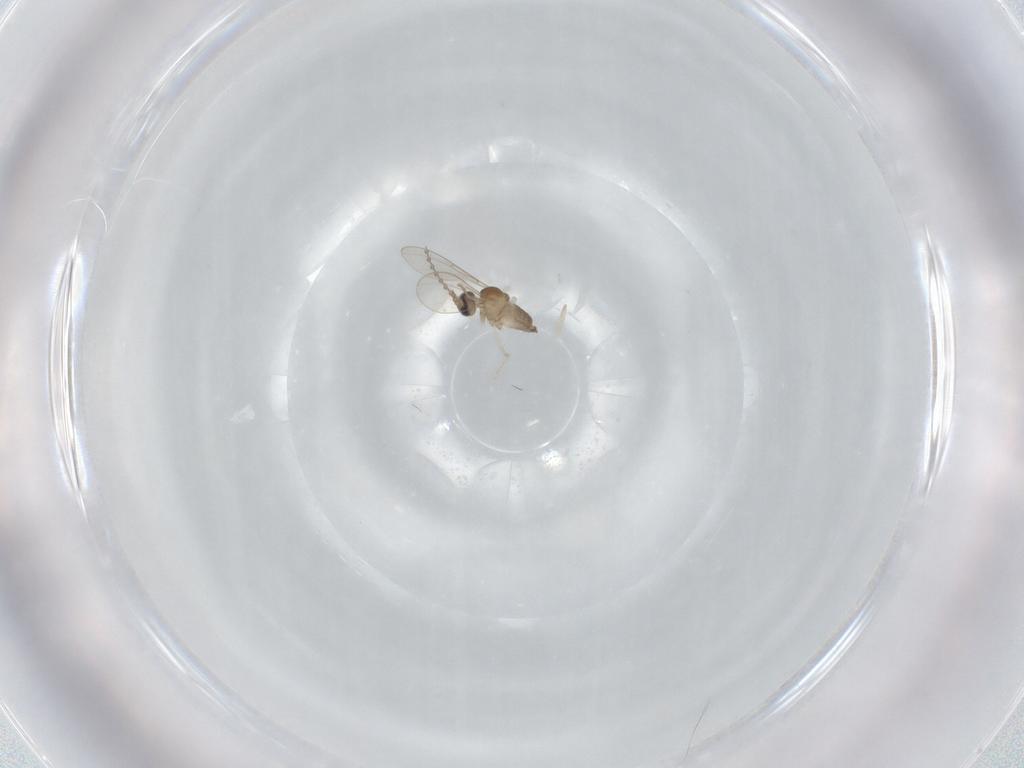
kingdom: Animalia
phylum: Arthropoda
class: Insecta
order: Diptera
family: Cecidomyiidae
